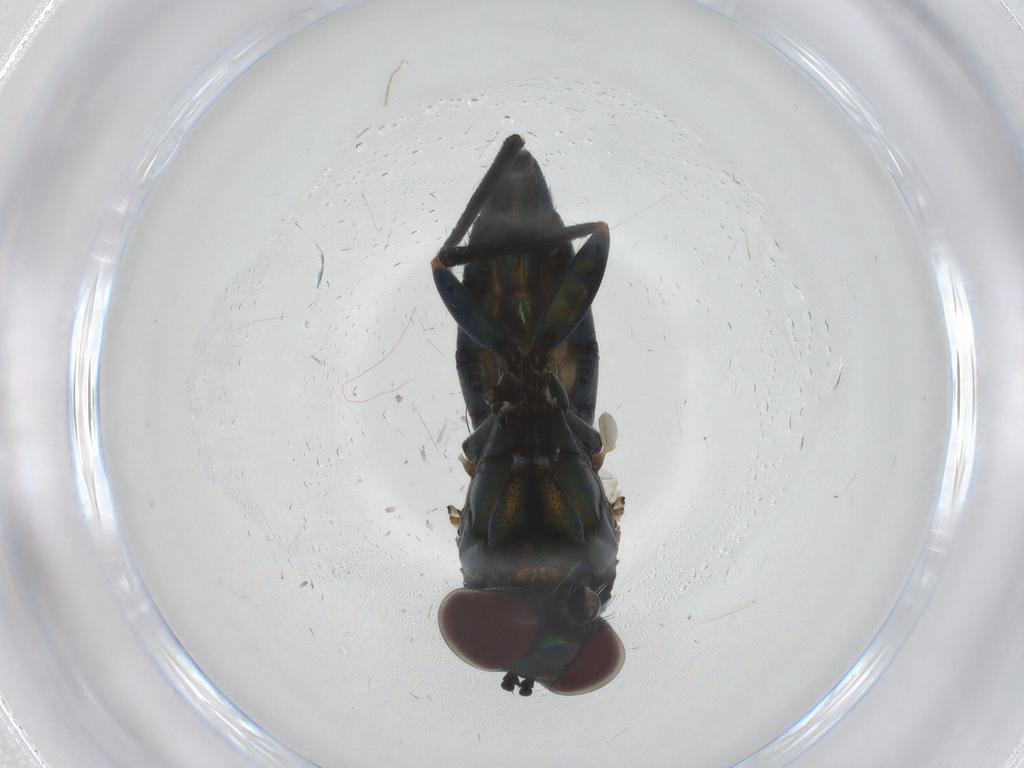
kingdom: Animalia
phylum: Arthropoda
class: Insecta
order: Diptera
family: Dolichopodidae
